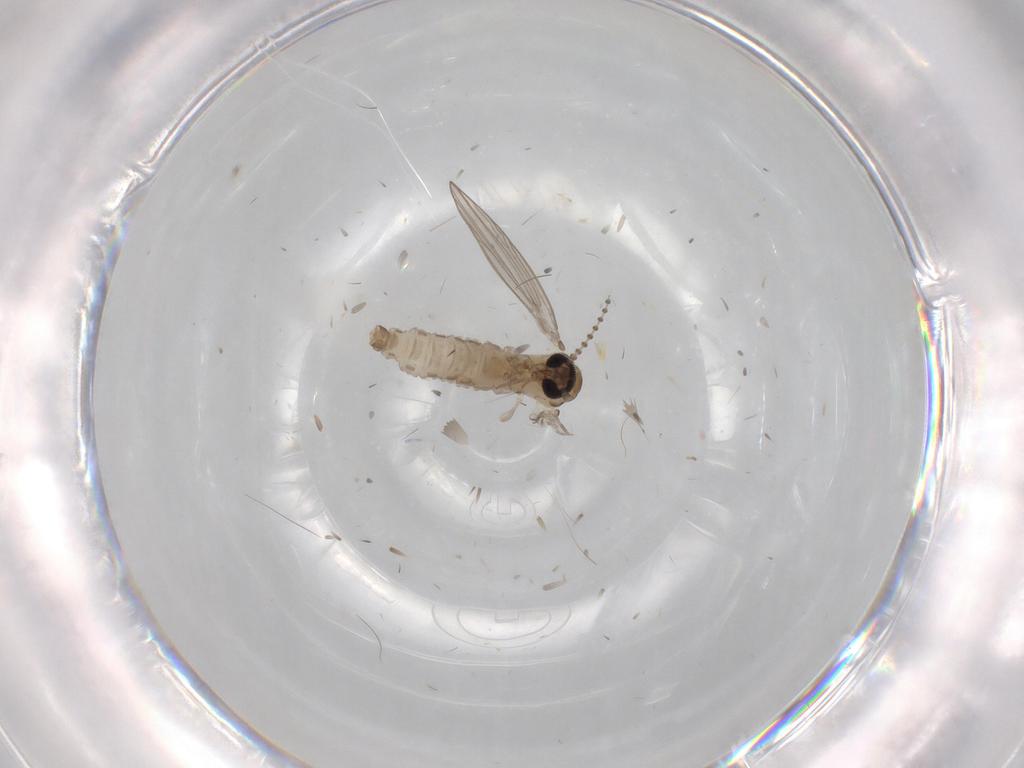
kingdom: Animalia
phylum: Arthropoda
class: Insecta
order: Diptera
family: Psychodidae
